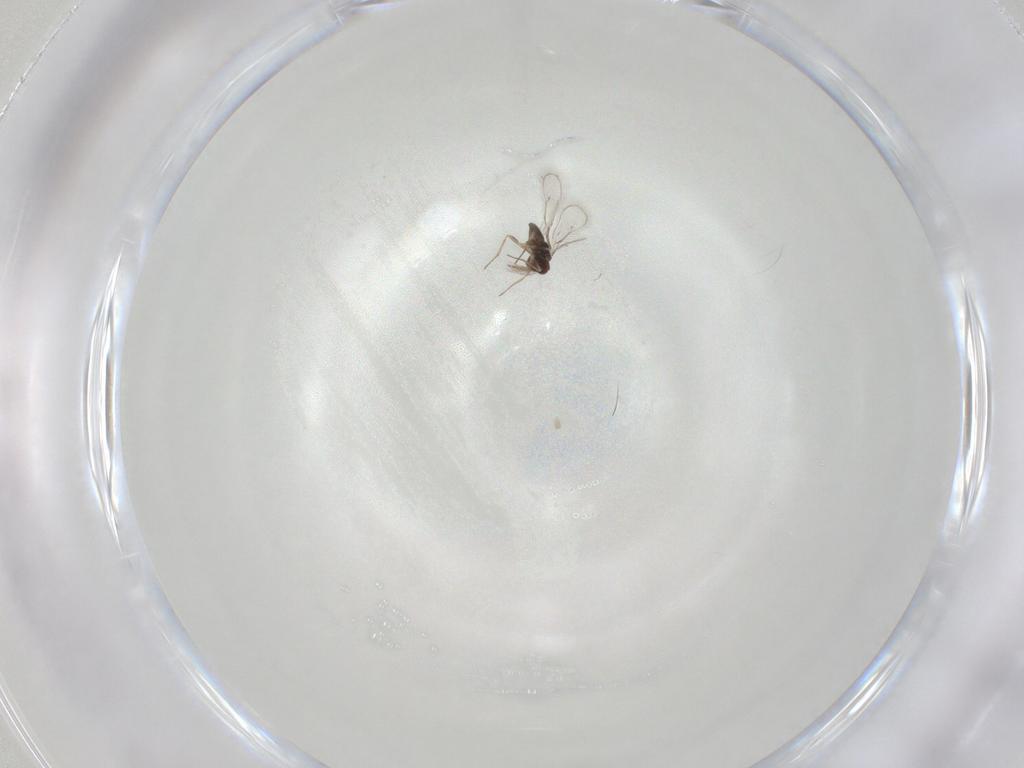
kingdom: Animalia
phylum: Arthropoda
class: Insecta
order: Hymenoptera
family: Eulophidae
